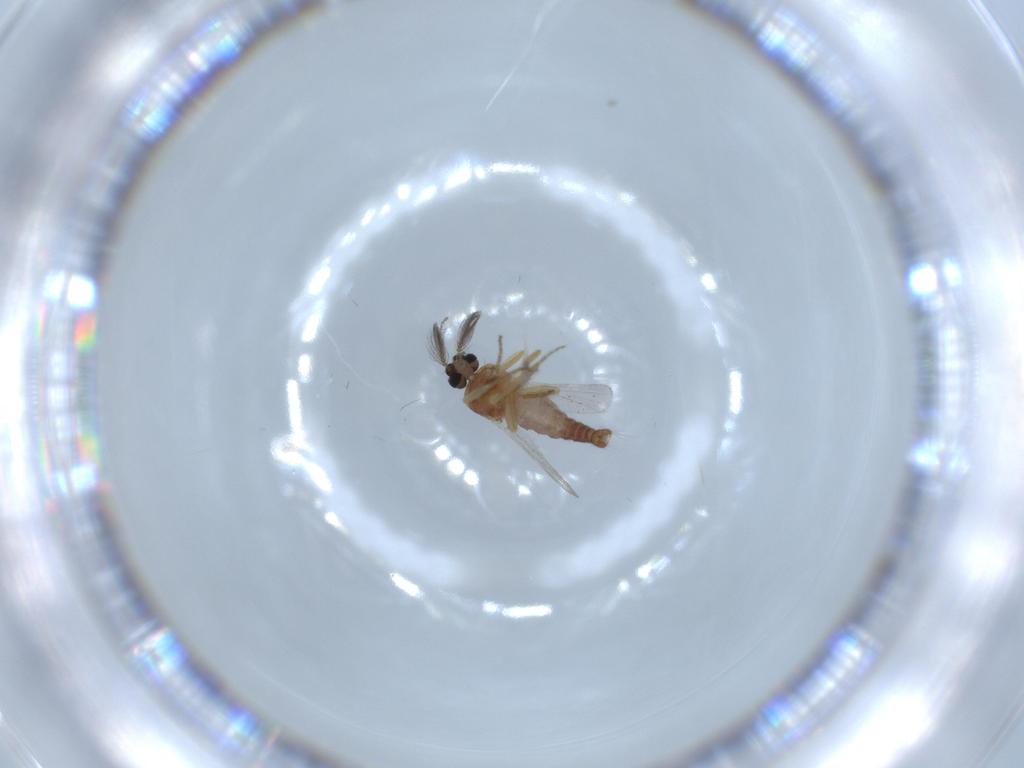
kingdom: Animalia
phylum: Arthropoda
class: Insecta
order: Diptera
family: Ceratopogonidae
